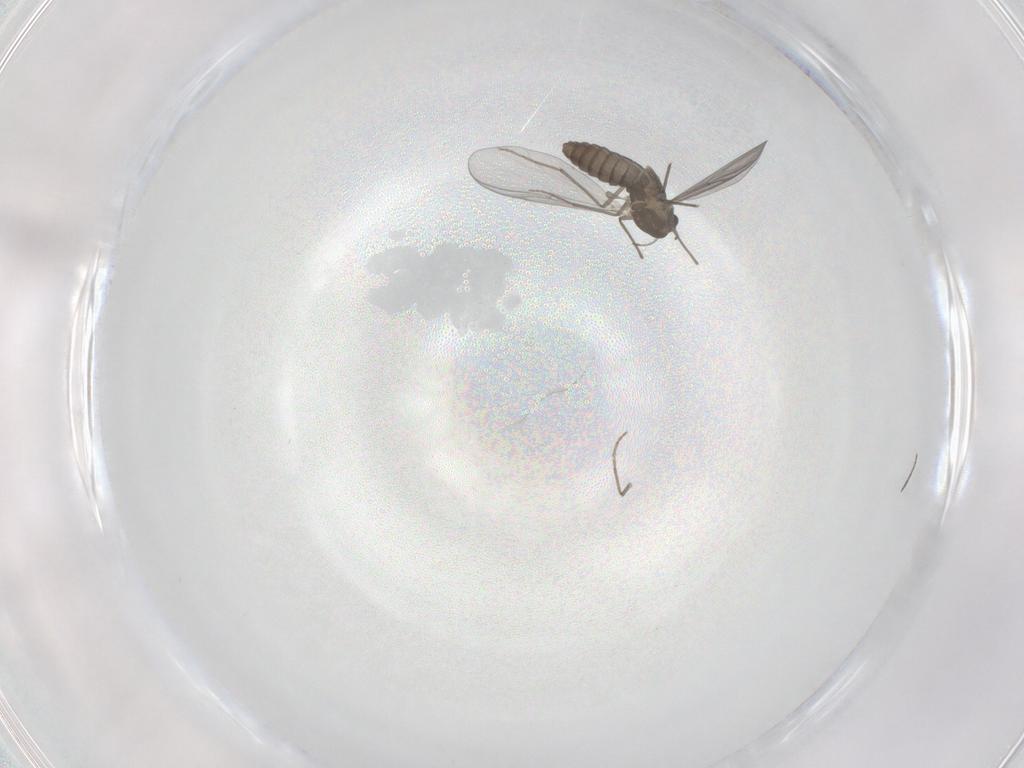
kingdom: Animalia
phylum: Arthropoda
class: Insecta
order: Diptera
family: Chironomidae
